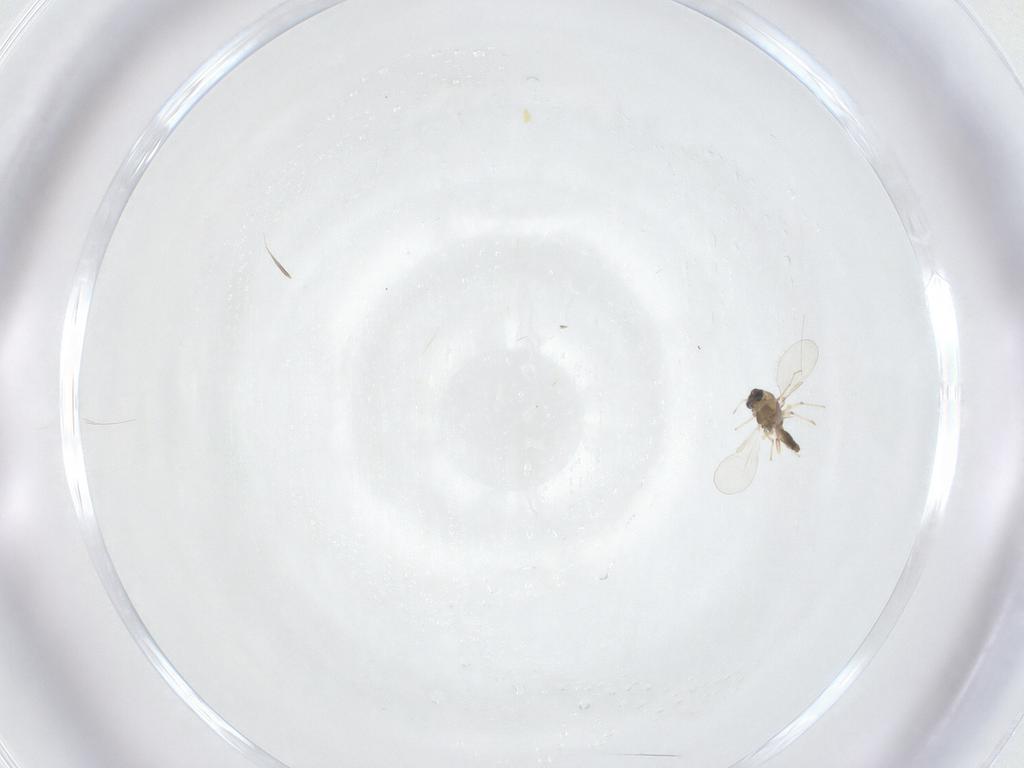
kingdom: Animalia
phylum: Arthropoda
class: Insecta
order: Diptera
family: Chironomidae
